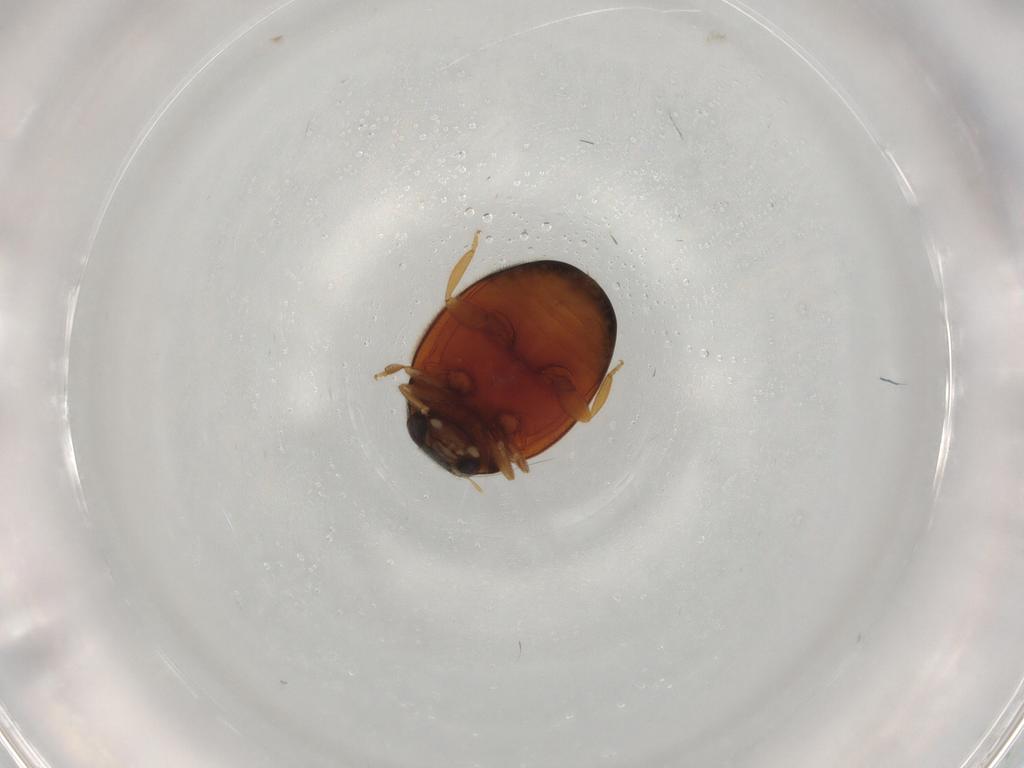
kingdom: Animalia
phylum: Arthropoda
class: Insecta
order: Coleoptera
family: Coccinellidae
